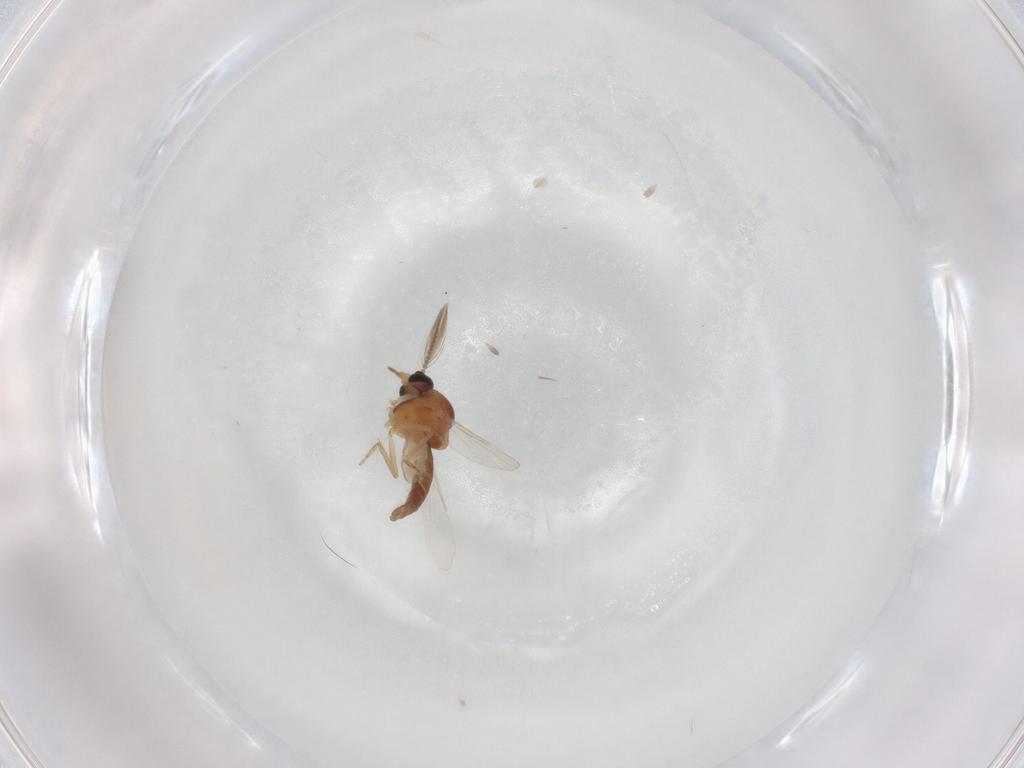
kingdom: Animalia
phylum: Arthropoda
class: Insecta
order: Diptera
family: Ceratopogonidae
